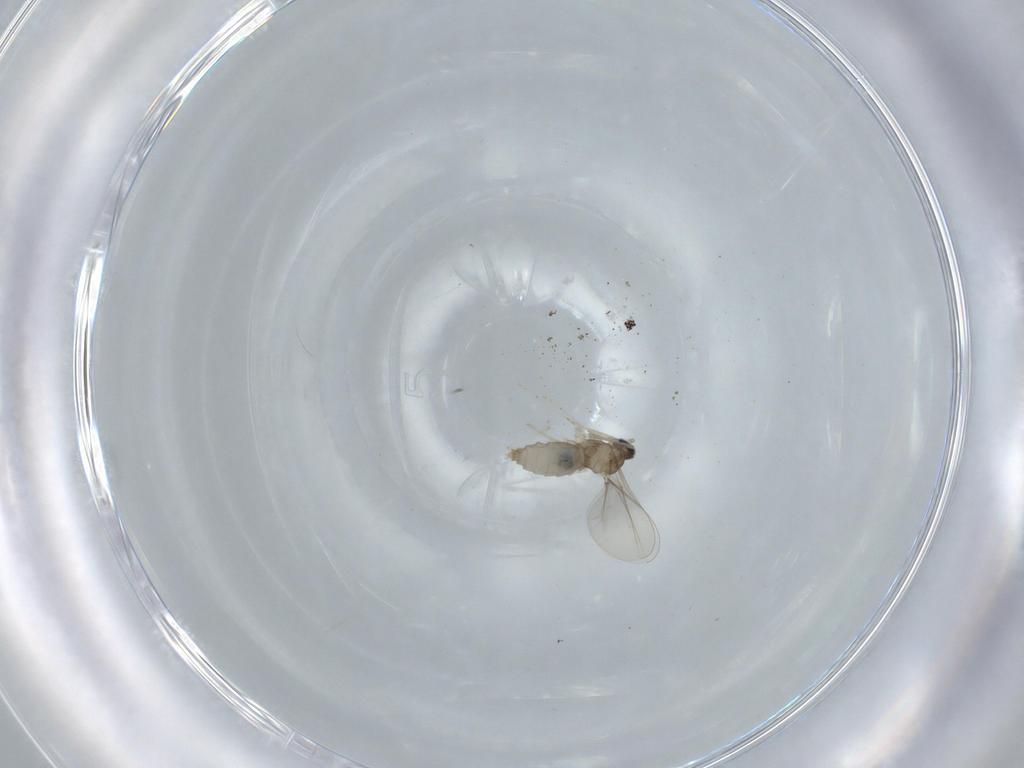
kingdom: Animalia
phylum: Arthropoda
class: Insecta
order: Diptera
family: Cecidomyiidae
